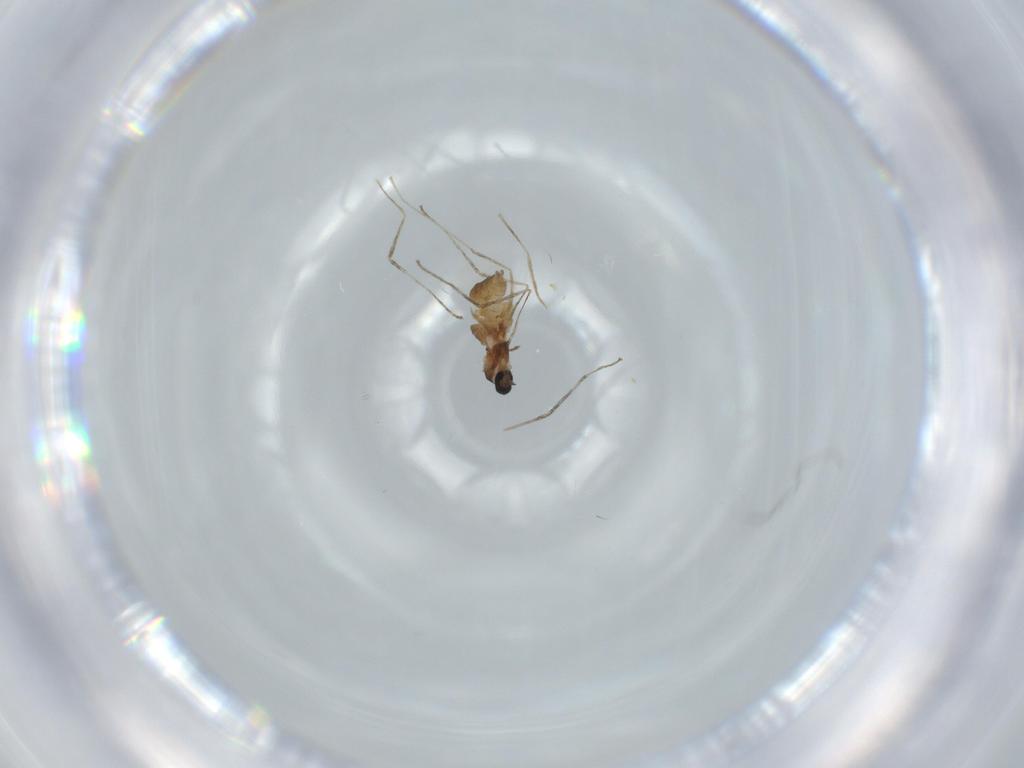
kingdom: Animalia
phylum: Arthropoda
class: Insecta
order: Diptera
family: Cecidomyiidae
